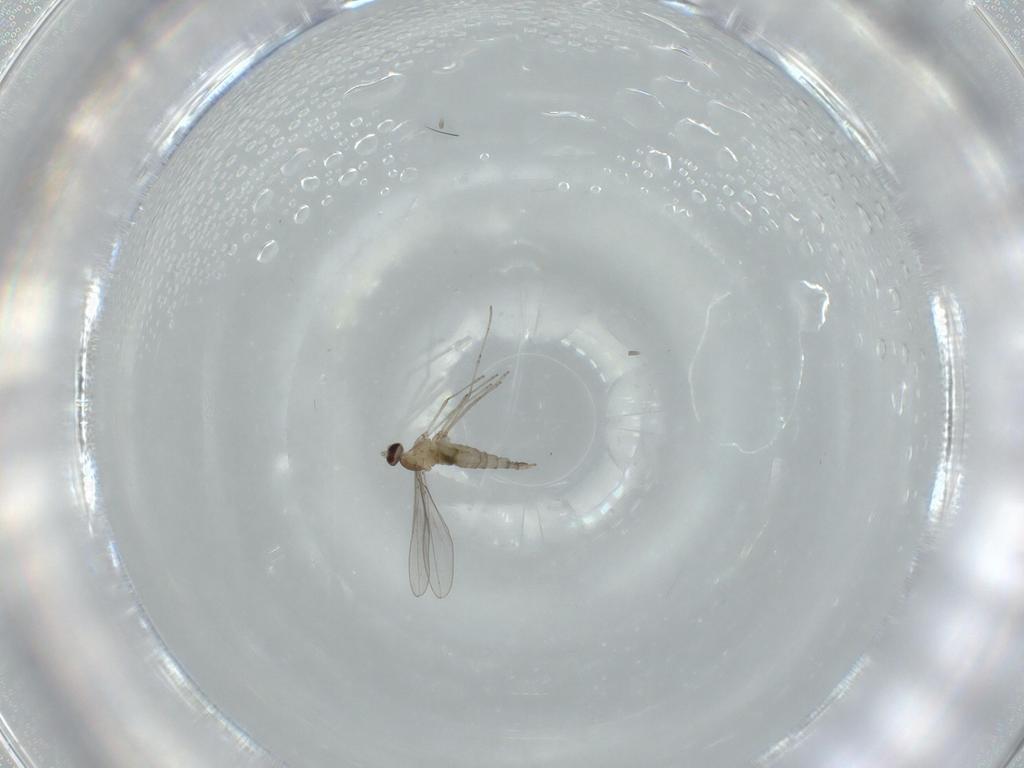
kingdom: Animalia
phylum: Arthropoda
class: Insecta
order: Diptera
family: Cecidomyiidae
